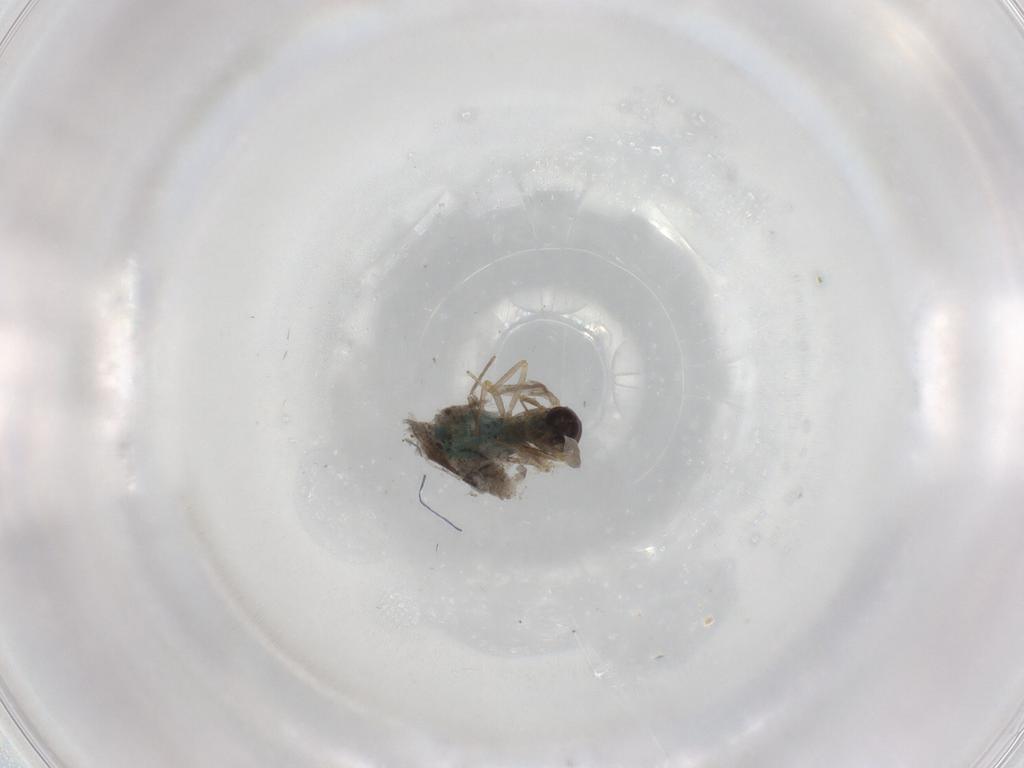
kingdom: Animalia
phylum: Arthropoda
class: Insecta
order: Diptera
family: Ceratopogonidae
